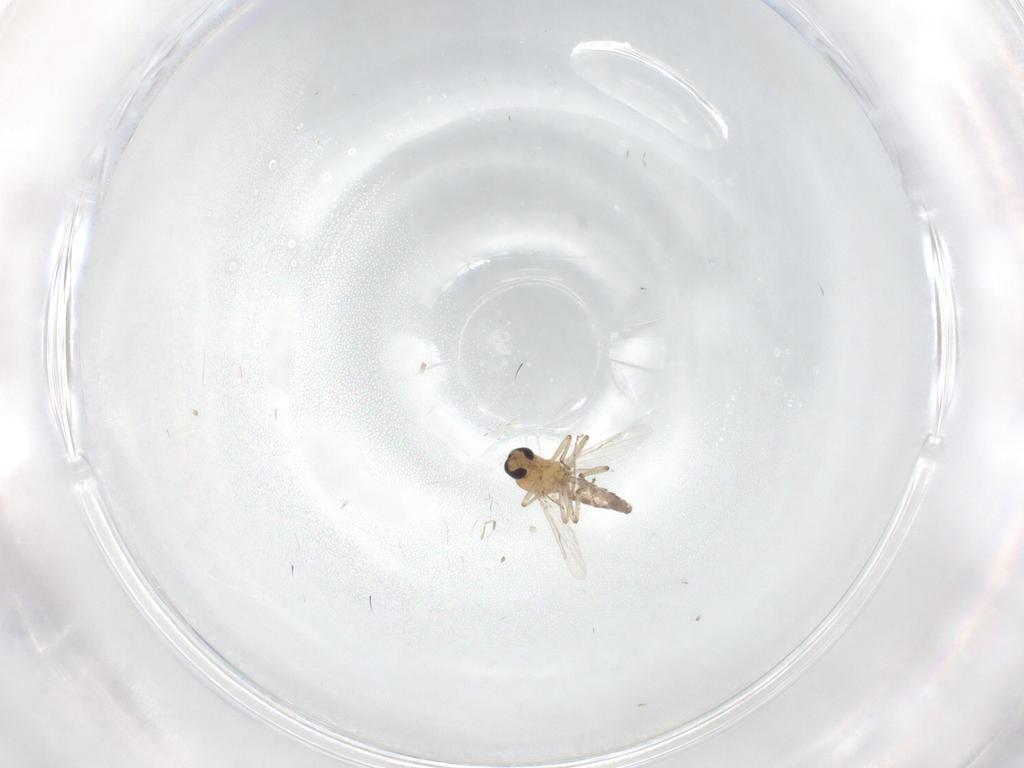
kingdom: Animalia
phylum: Arthropoda
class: Insecta
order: Diptera
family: Ceratopogonidae
